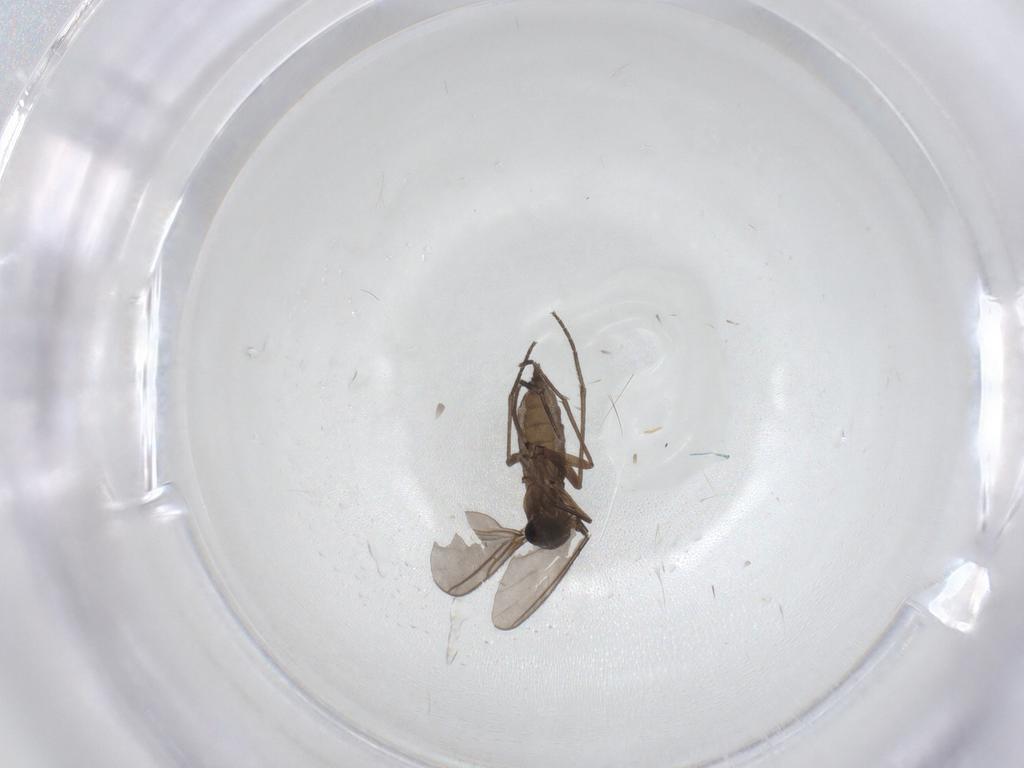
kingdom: Animalia
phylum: Arthropoda
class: Insecta
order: Diptera
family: Sciaridae
